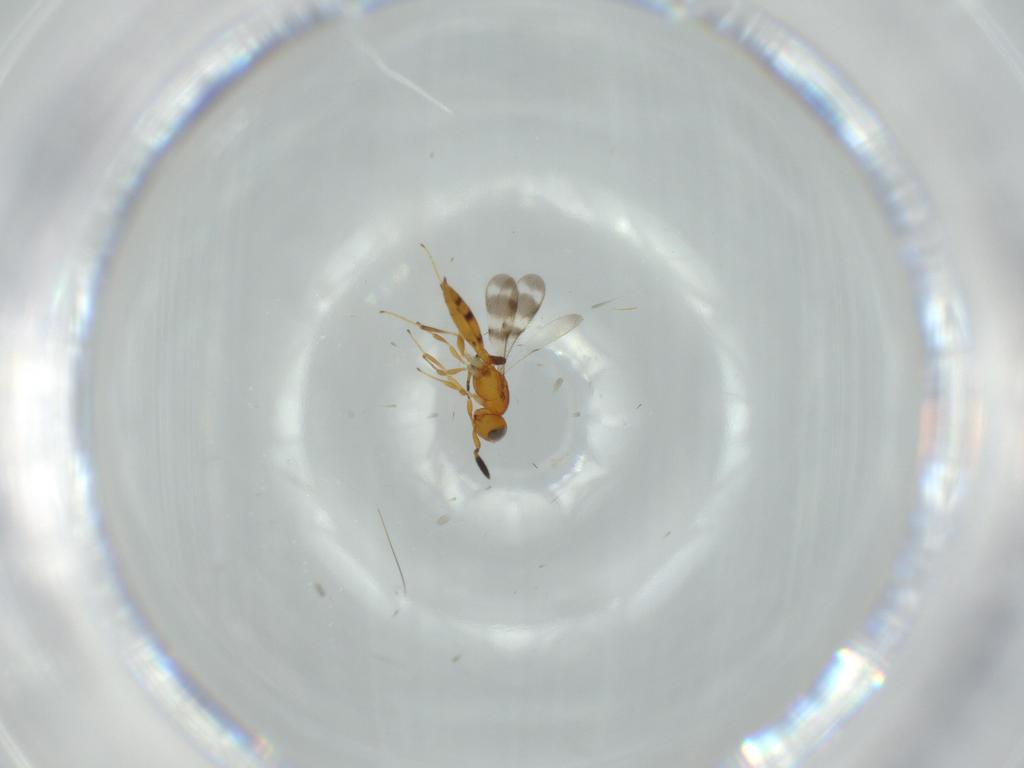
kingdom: Animalia
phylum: Arthropoda
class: Insecta
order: Hymenoptera
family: Scelionidae
